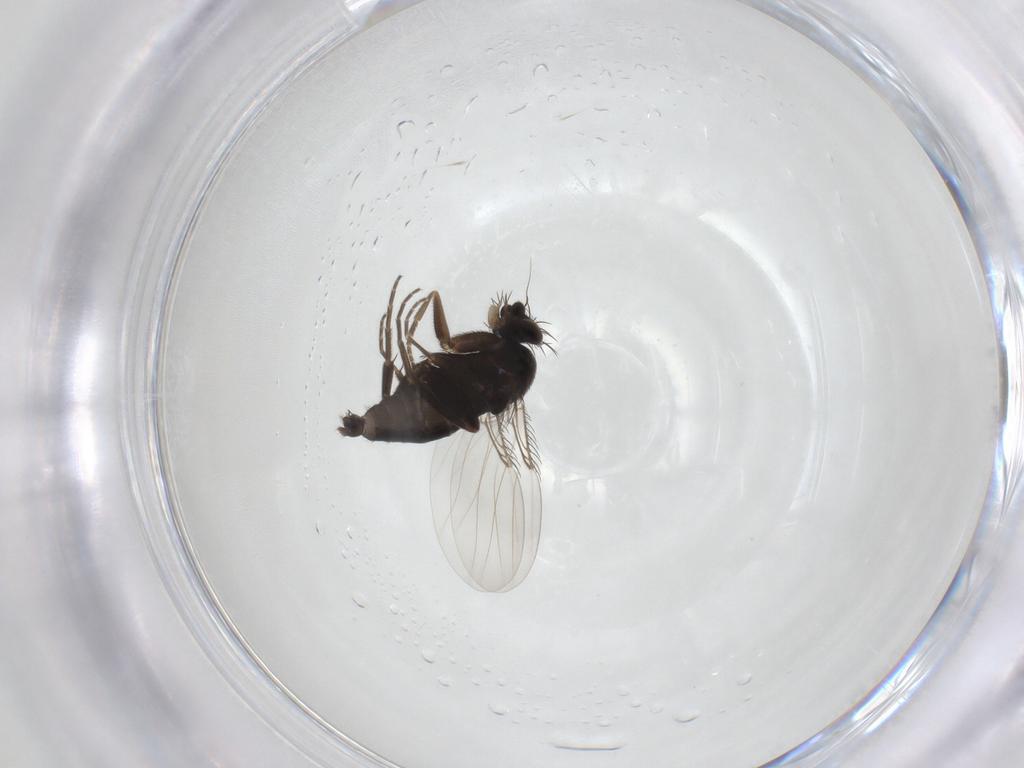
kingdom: Animalia
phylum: Arthropoda
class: Insecta
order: Diptera
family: Phoridae
